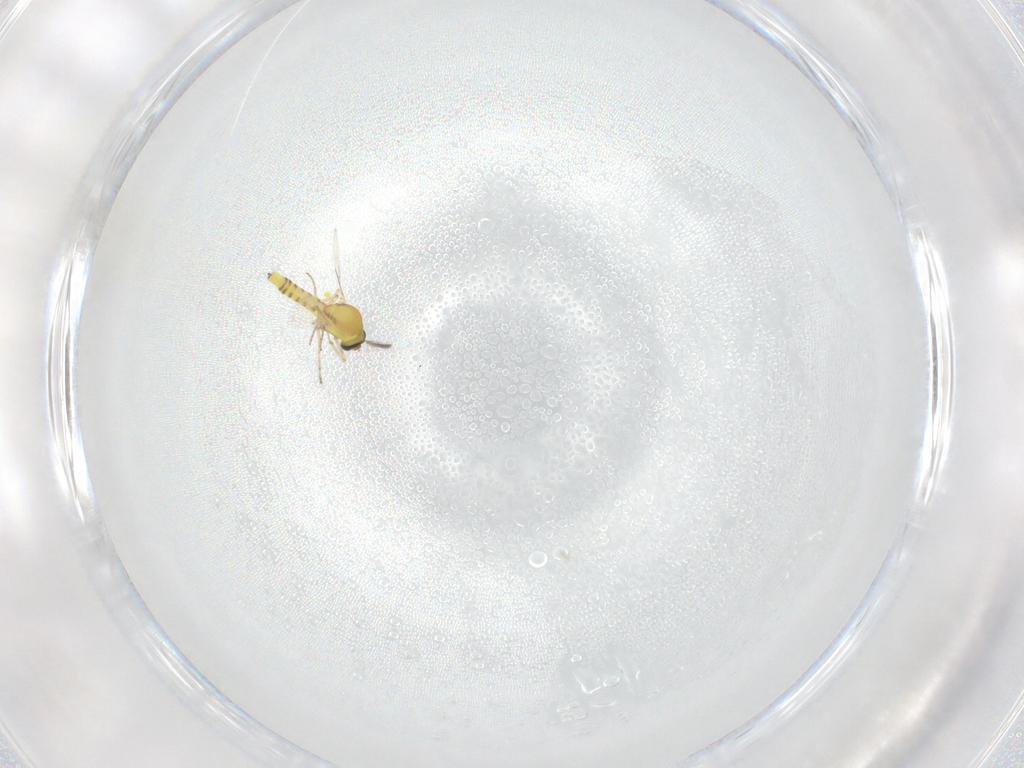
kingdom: Animalia
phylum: Arthropoda
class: Insecta
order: Diptera
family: Ceratopogonidae
